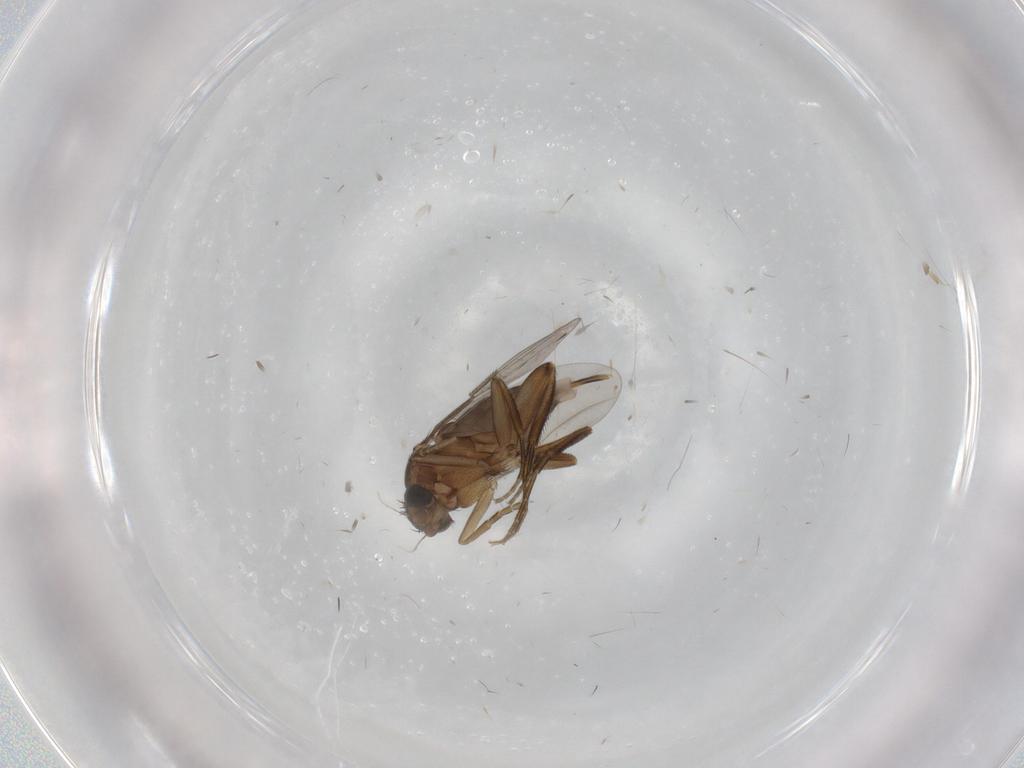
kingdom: Animalia
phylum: Arthropoda
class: Insecta
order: Diptera
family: Phoridae
